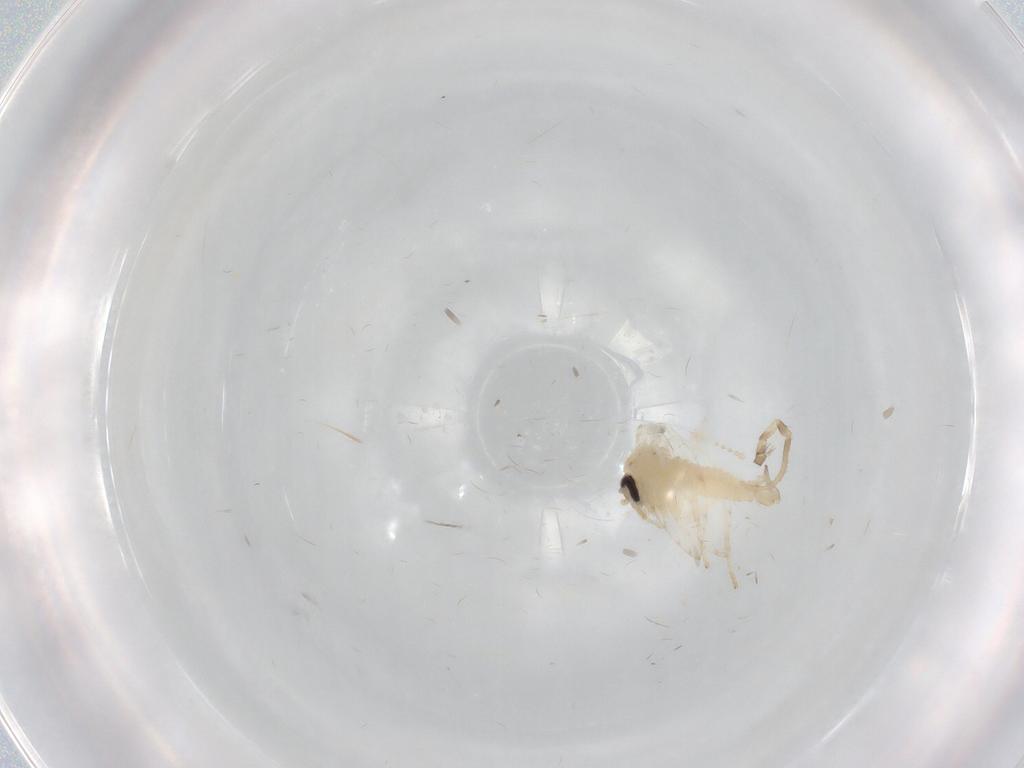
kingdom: Animalia
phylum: Arthropoda
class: Insecta
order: Diptera
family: Psychodidae
